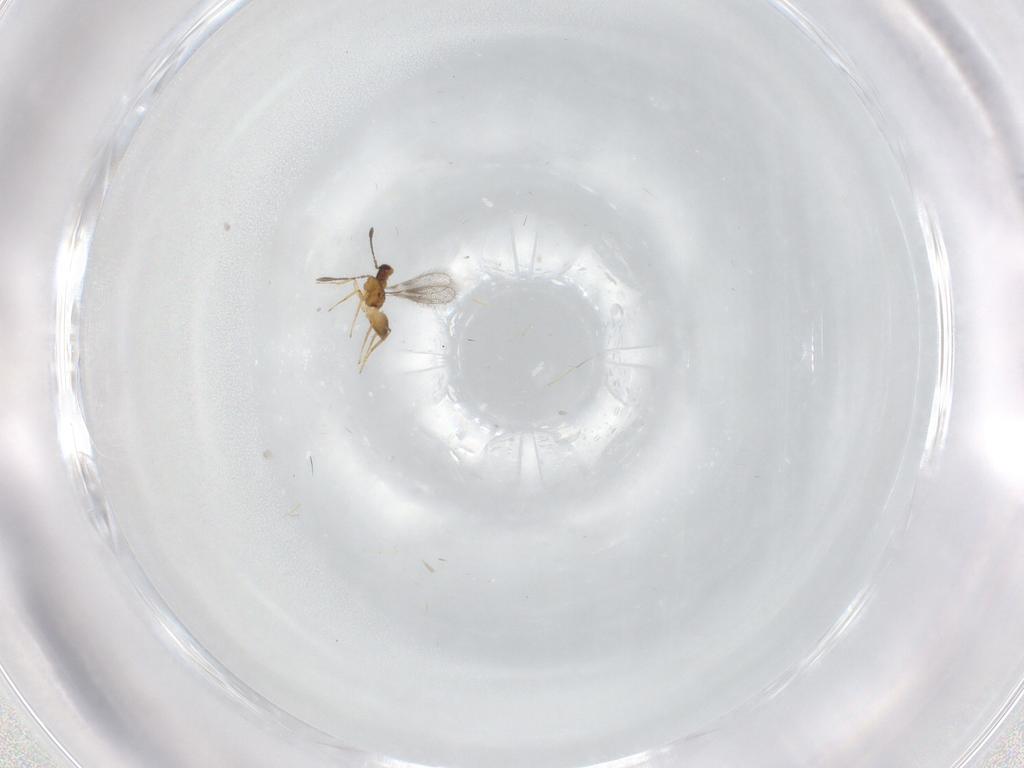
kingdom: Animalia
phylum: Arthropoda
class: Insecta
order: Hymenoptera
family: Mymaridae
